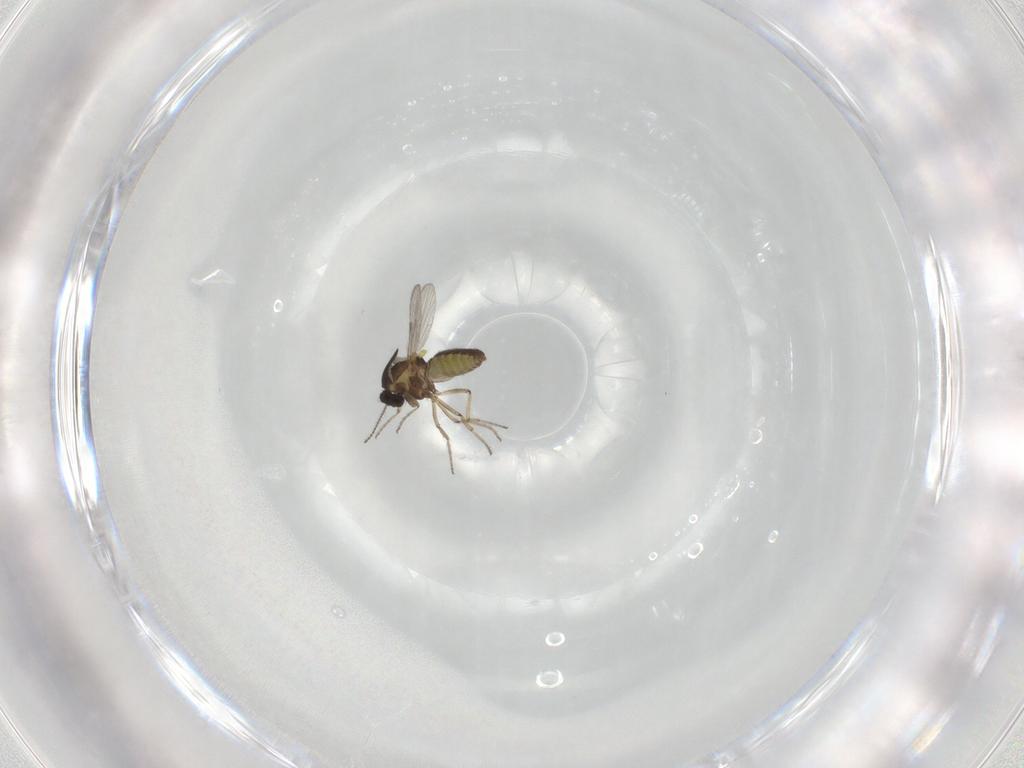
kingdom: Animalia
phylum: Arthropoda
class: Insecta
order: Diptera
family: Ceratopogonidae
